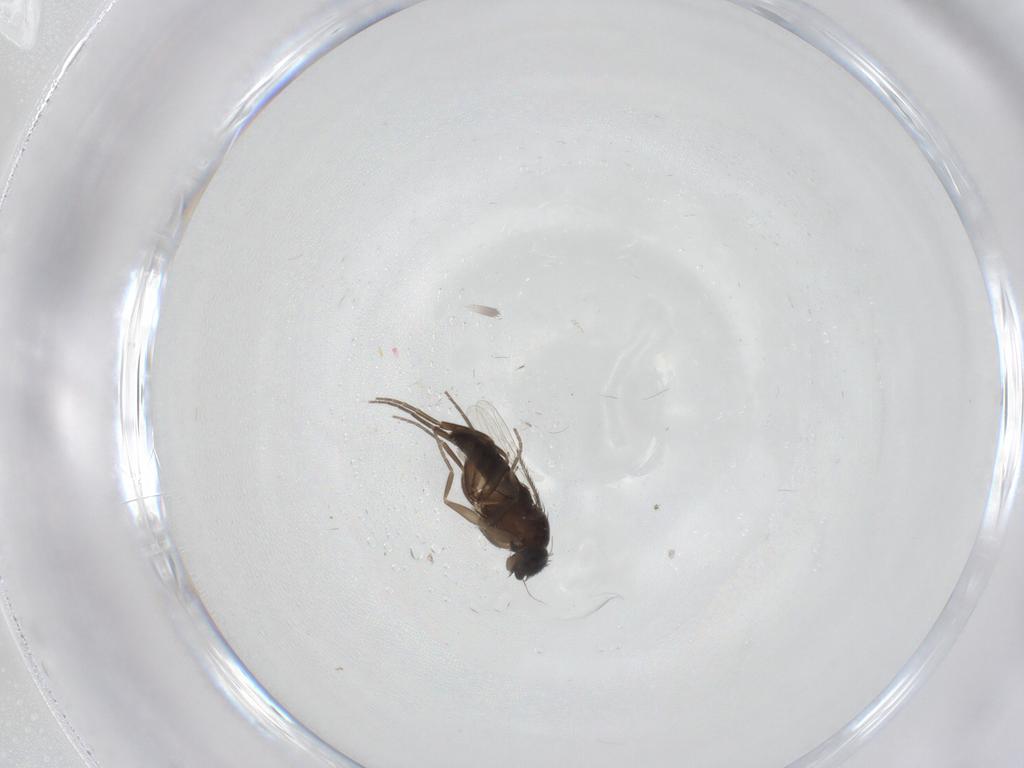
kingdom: Animalia
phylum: Arthropoda
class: Insecta
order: Diptera
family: Phoridae
